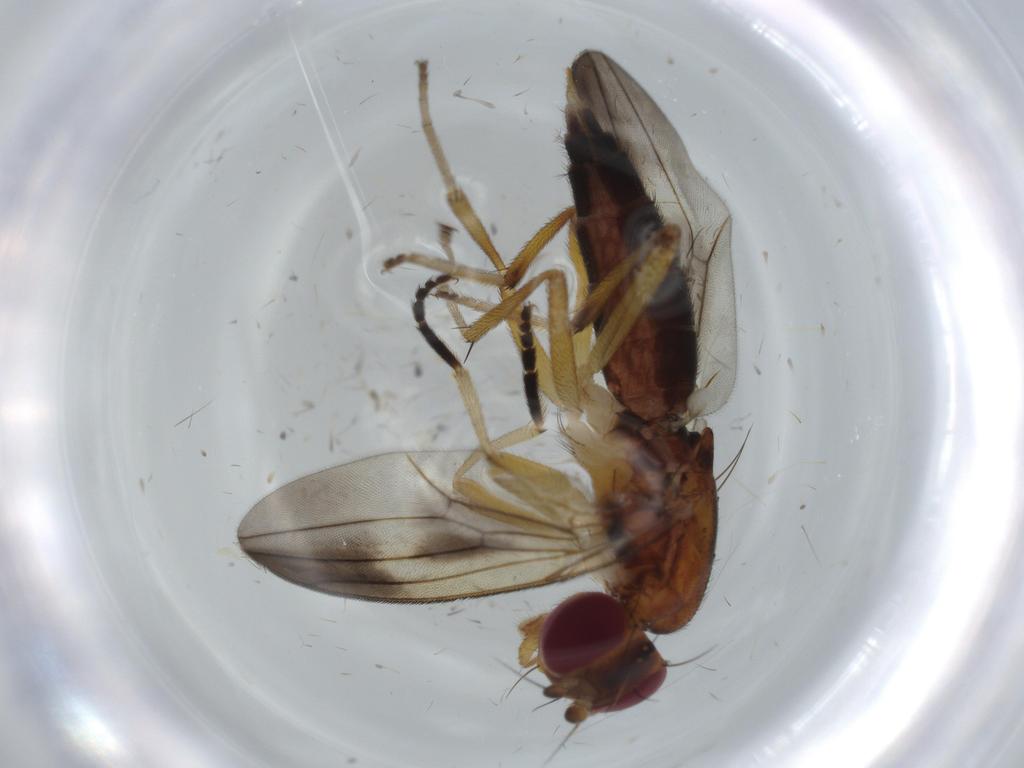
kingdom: Animalia
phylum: Arthropoda
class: Insecta
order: Diptera
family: Clusiidae
